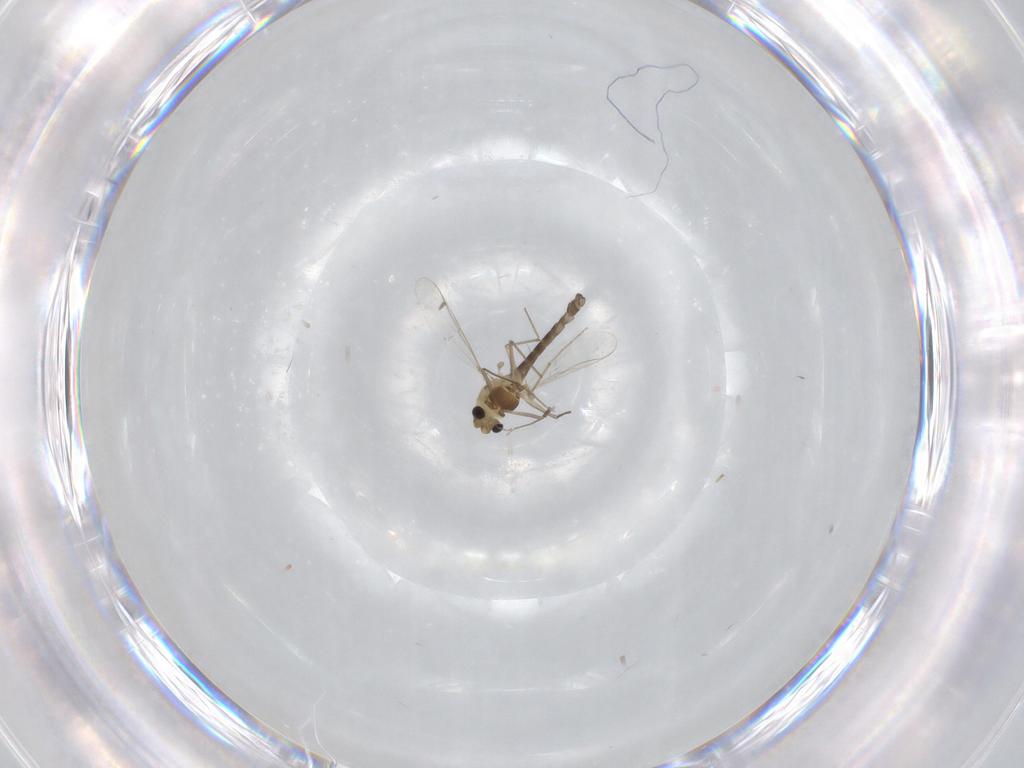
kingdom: Animalia
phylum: Arthropoda
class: Insecta
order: Diptera
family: Chironomidae
